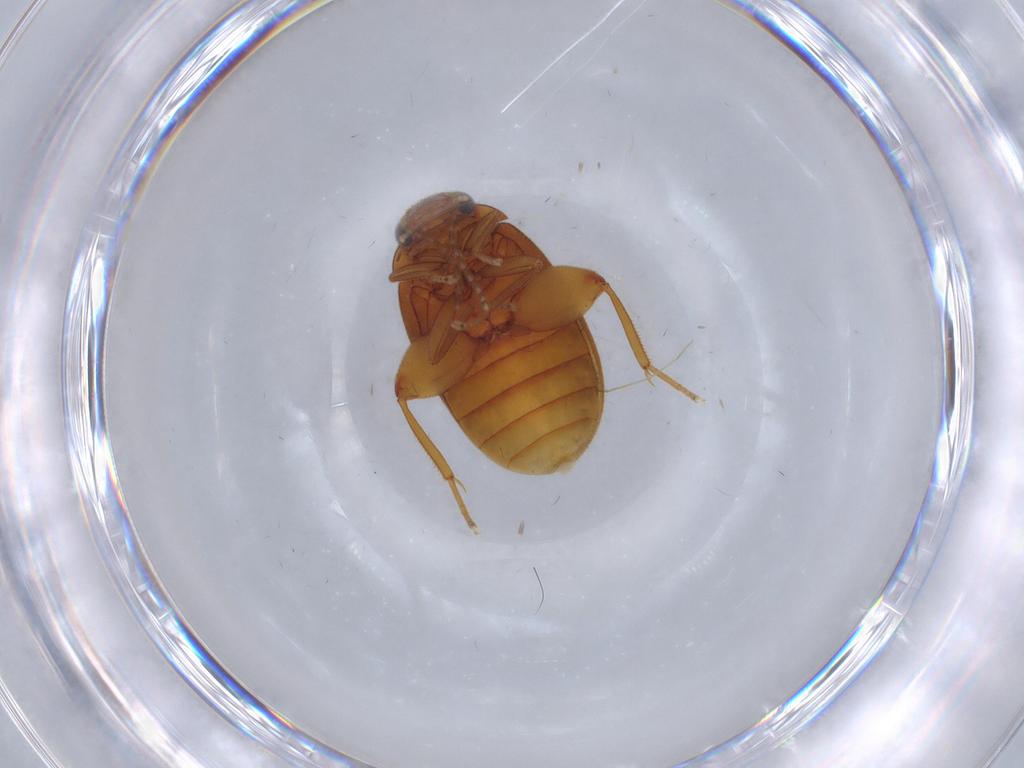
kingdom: Animalia
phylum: Arthropoda
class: Insecta
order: Coleoptera
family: Scirtidae
